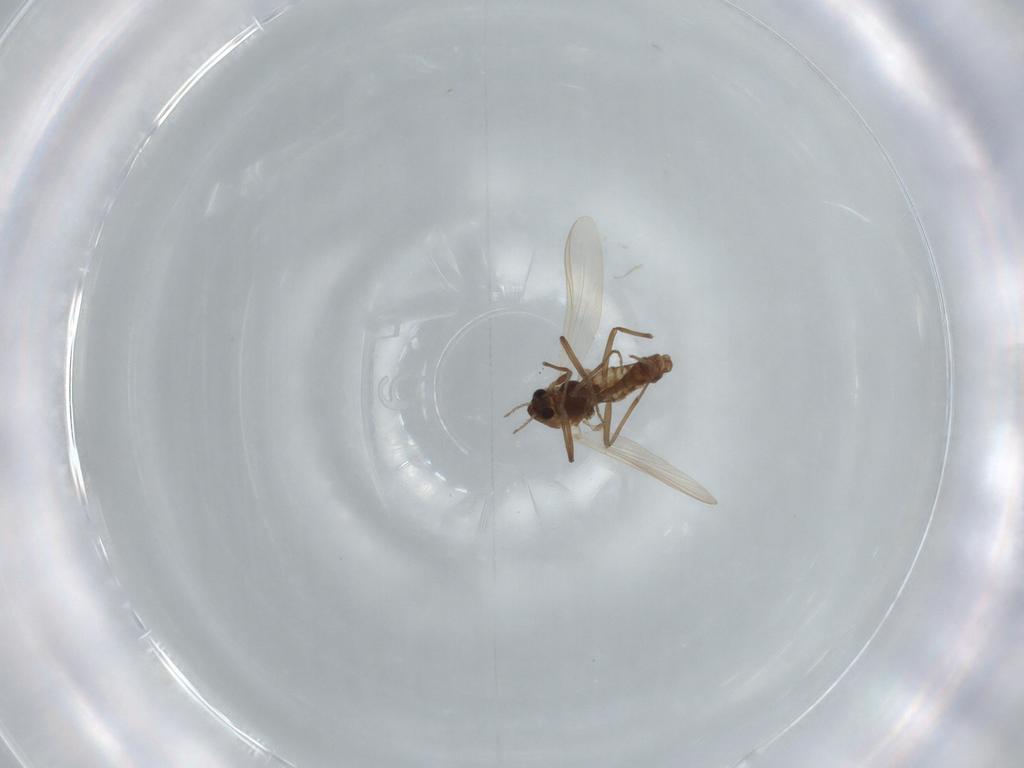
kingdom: Animalia
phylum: Arthropoda
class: Insecta
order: Diptera
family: Chironomidae
